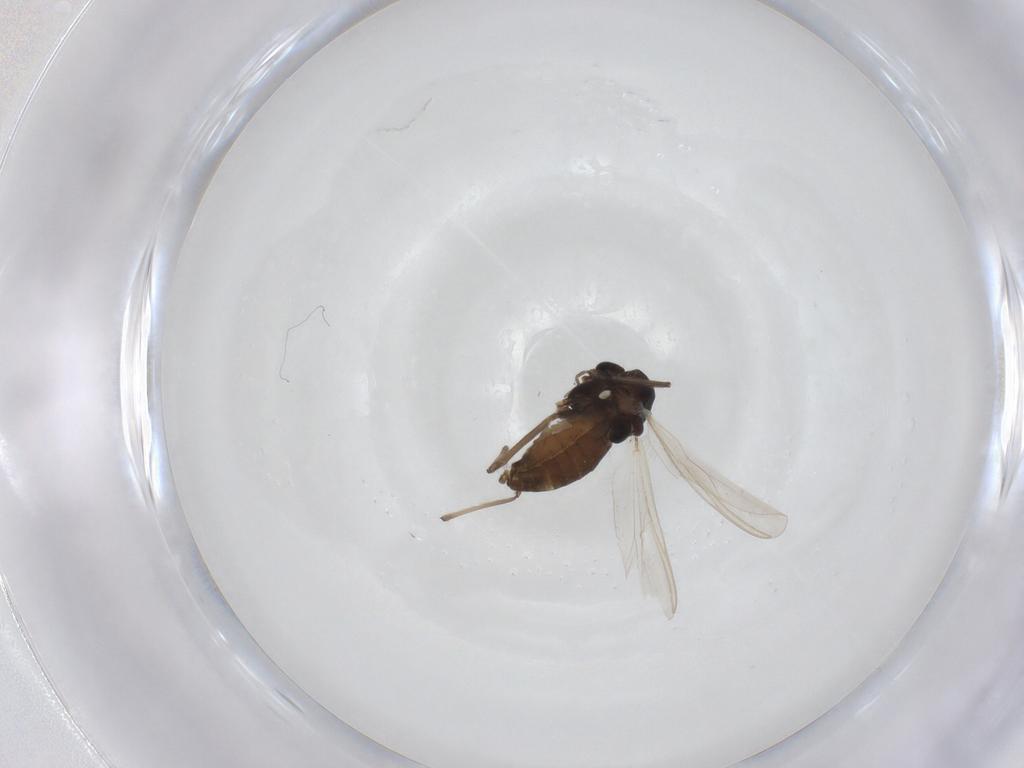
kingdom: Animalia
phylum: Arthropoda
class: Insecta
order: Diptera
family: Chironomidae
